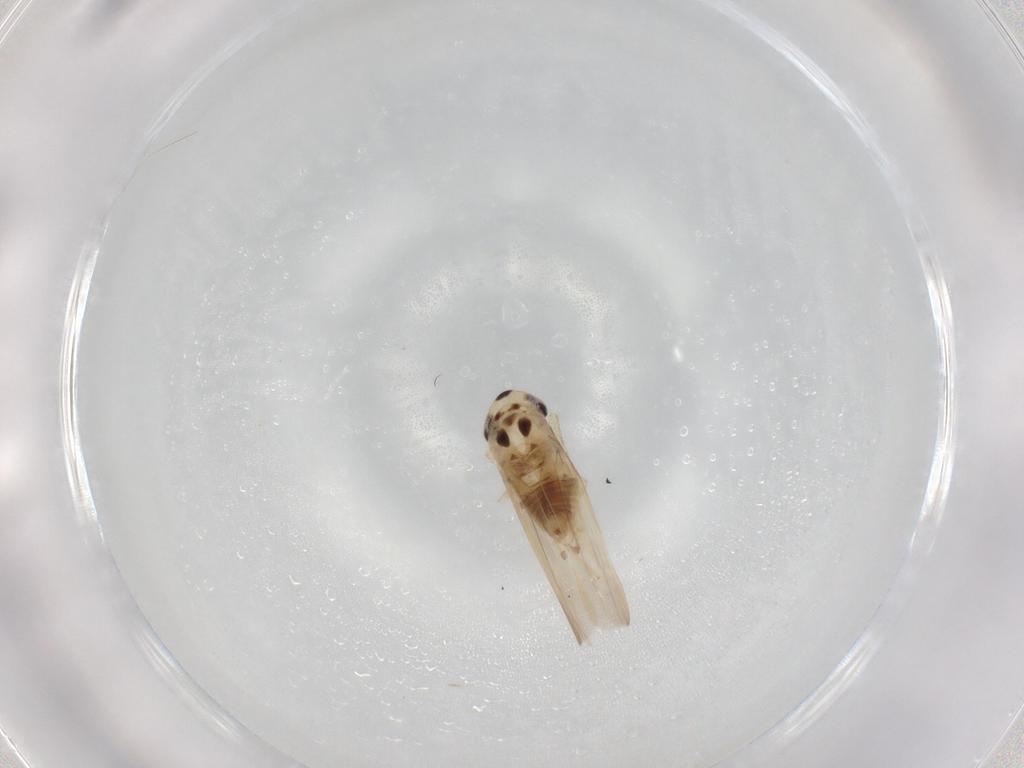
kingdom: Animalia
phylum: Arthropoda
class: Insecta
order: Hemiptera
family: Cicadellidae
